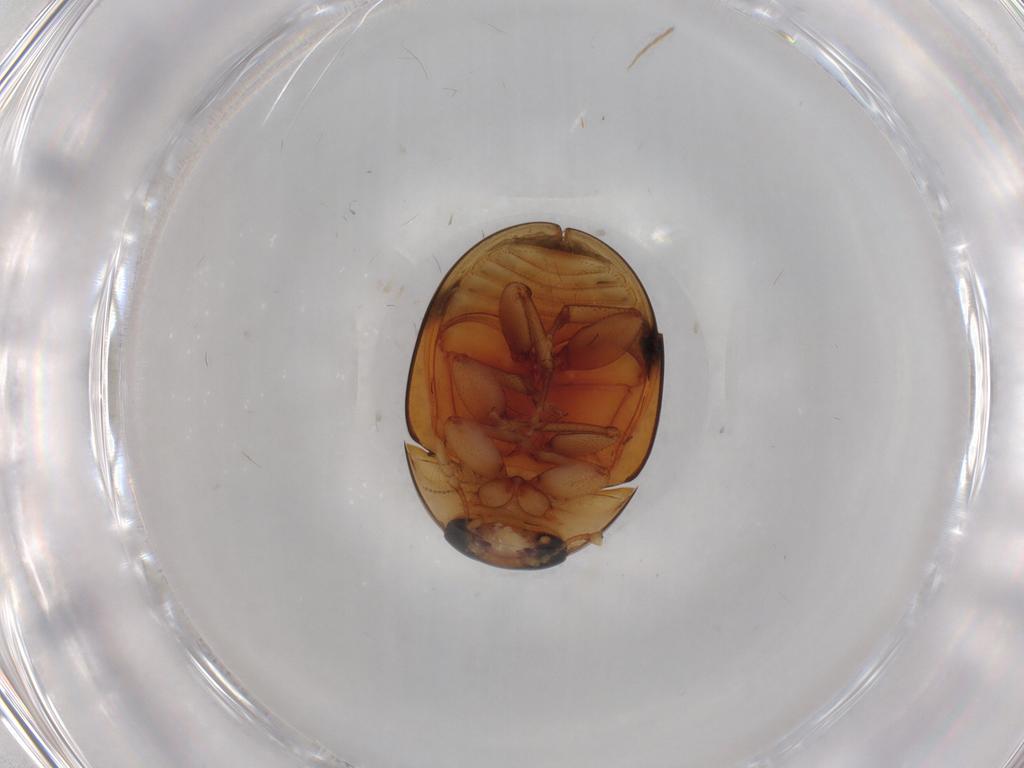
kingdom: Animalia
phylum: Arthropoda
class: Insecta
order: Coleoptera
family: Phalacridae
